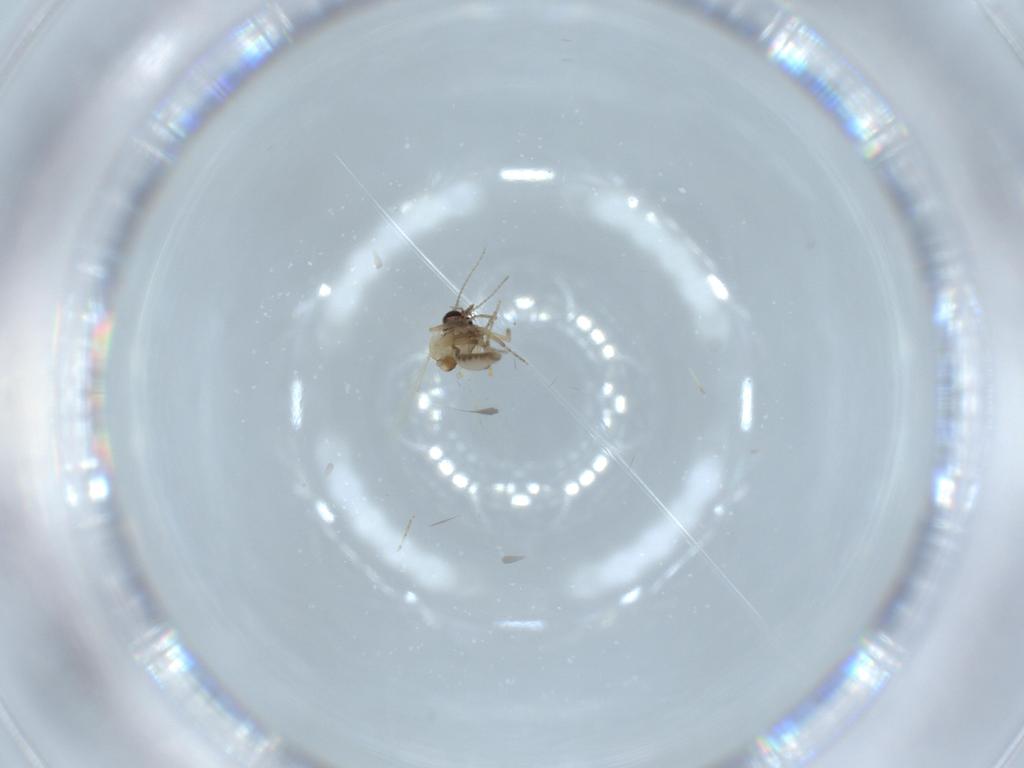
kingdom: Animalia
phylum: Arthropoda
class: Insecta
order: Diptera
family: Ceratopogonidae
